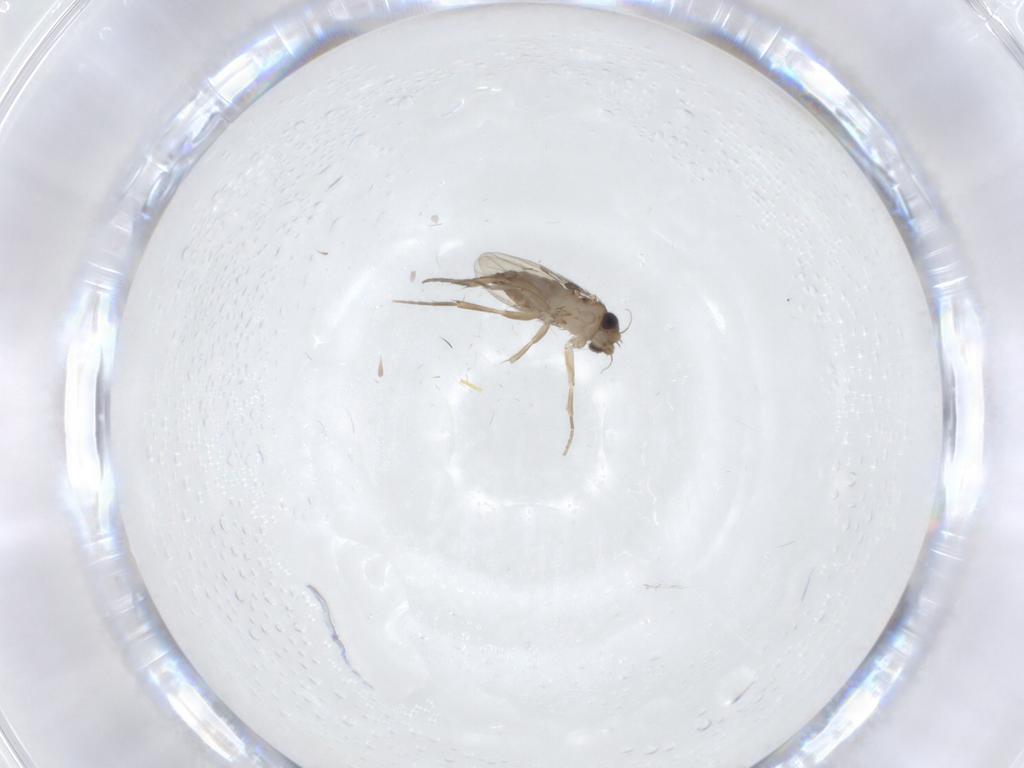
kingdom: Animalia
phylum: Arthropoda
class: Insecta
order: Diptera
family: Phoridae
